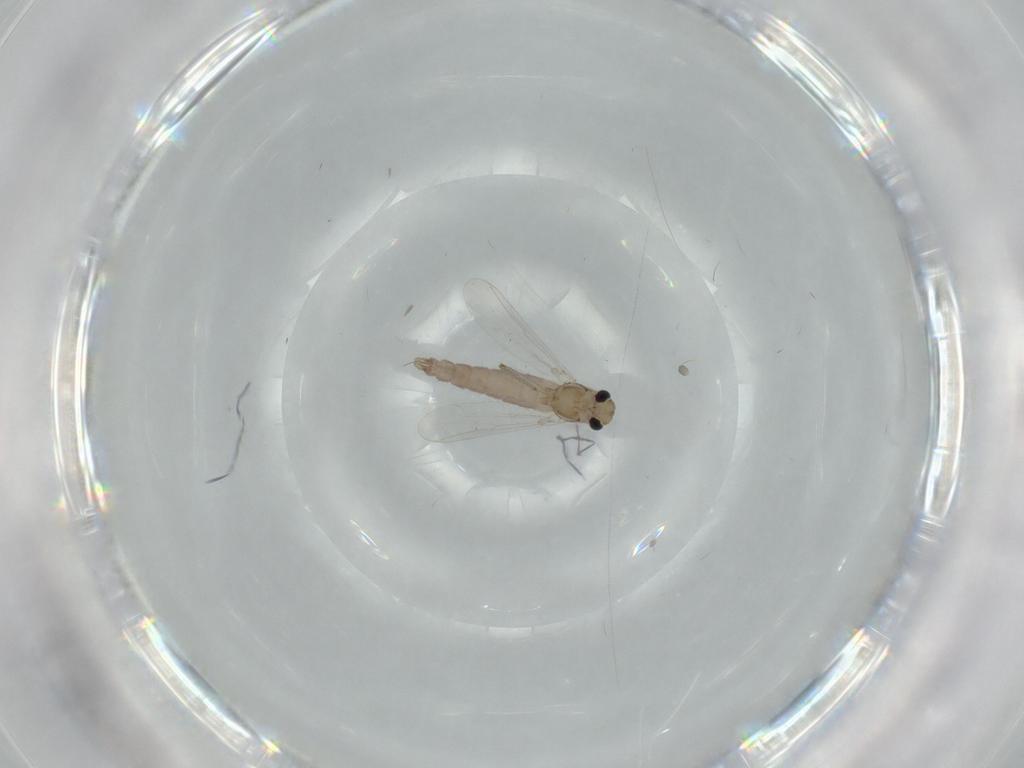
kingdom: Animalia
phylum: Arthropoda
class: Insecta
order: Diptera
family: Chironomidae
